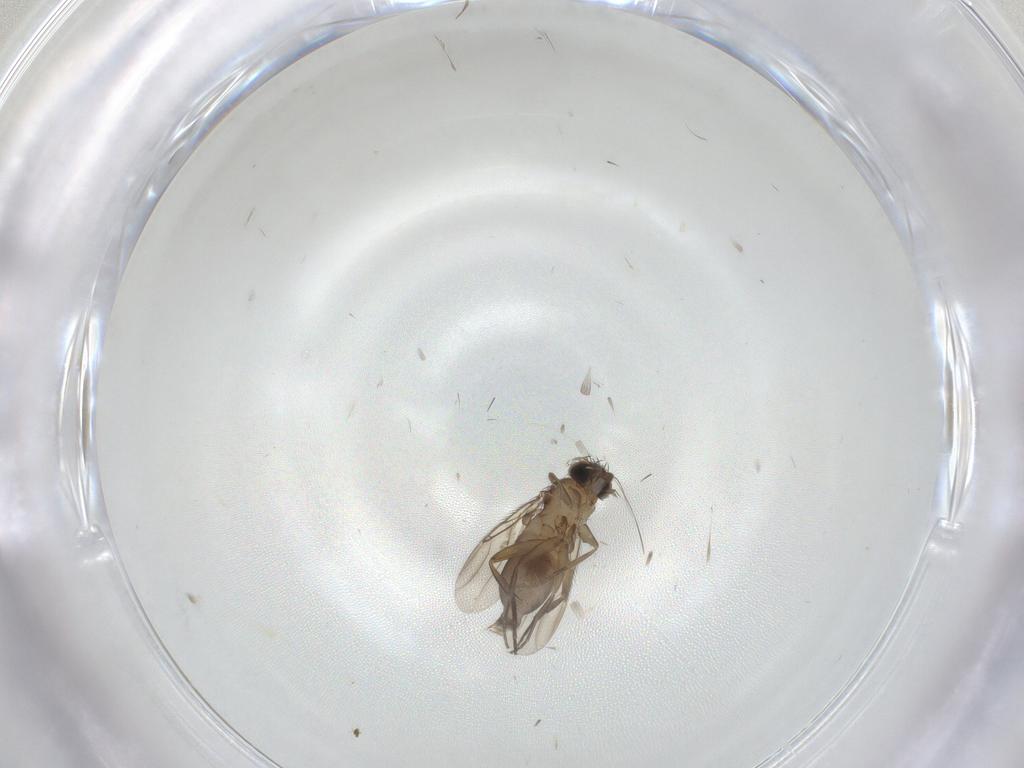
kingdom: Animalia
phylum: Arthropoda
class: Insecta
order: Diptera
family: Phoridae
